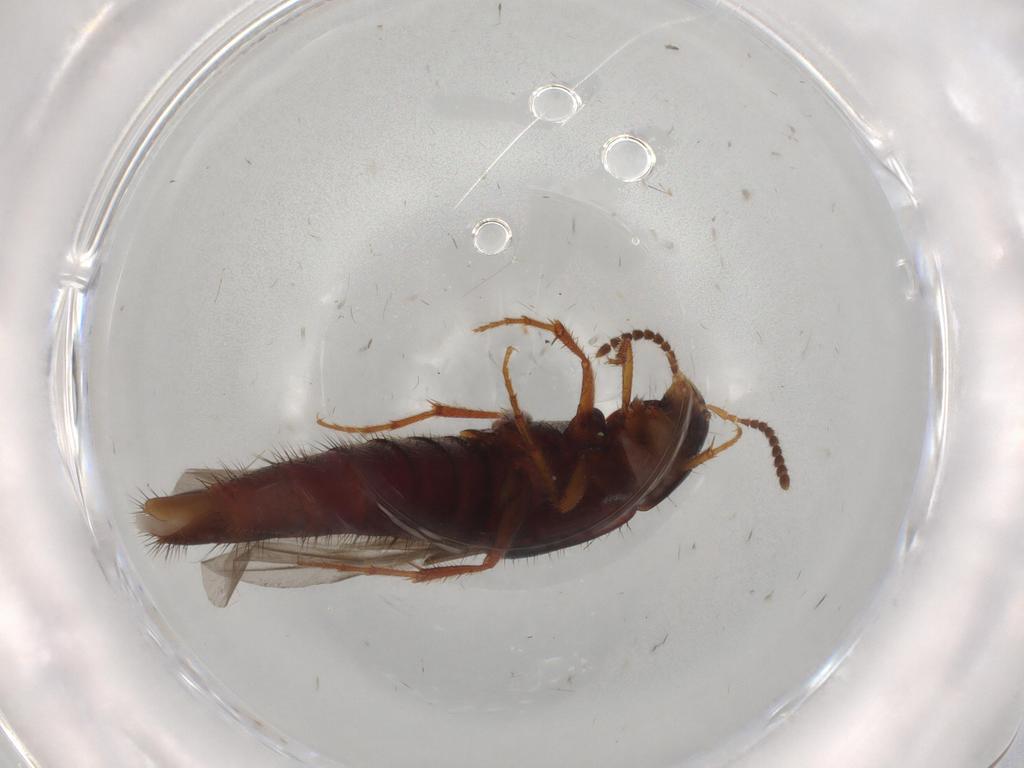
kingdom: Animalia
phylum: Arthropoda
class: Insecta
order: Coleoptera
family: Staphylinidae
